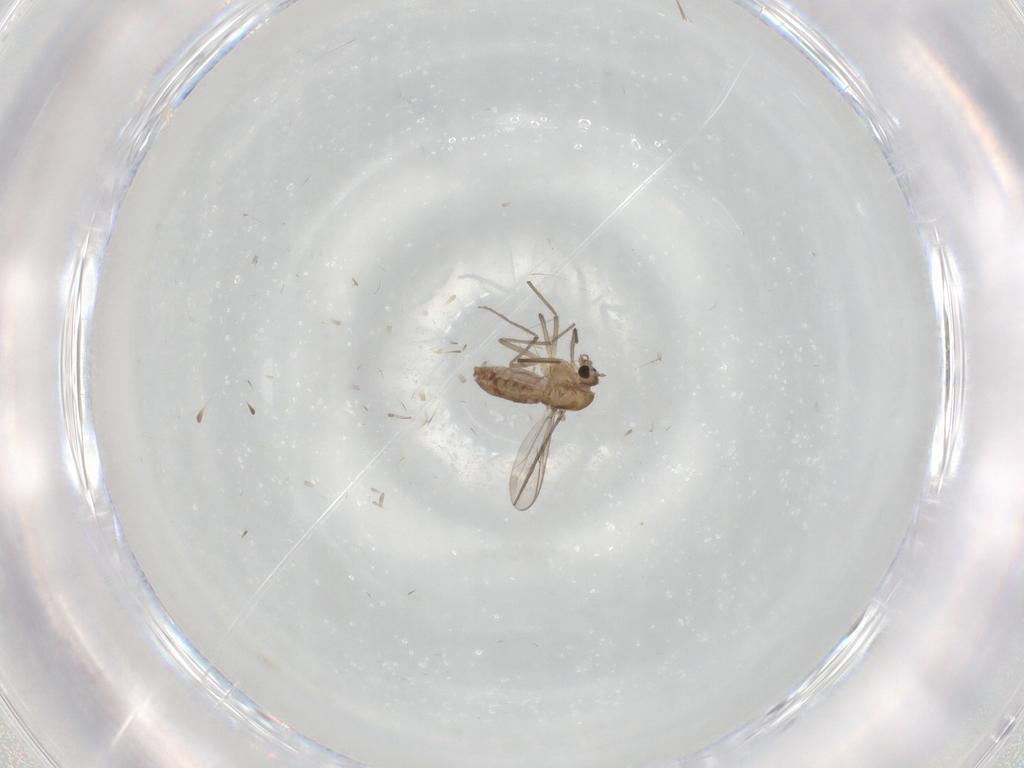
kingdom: Animalia
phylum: Arthropoda
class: Insecta
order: Diptera
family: Chironomidae
